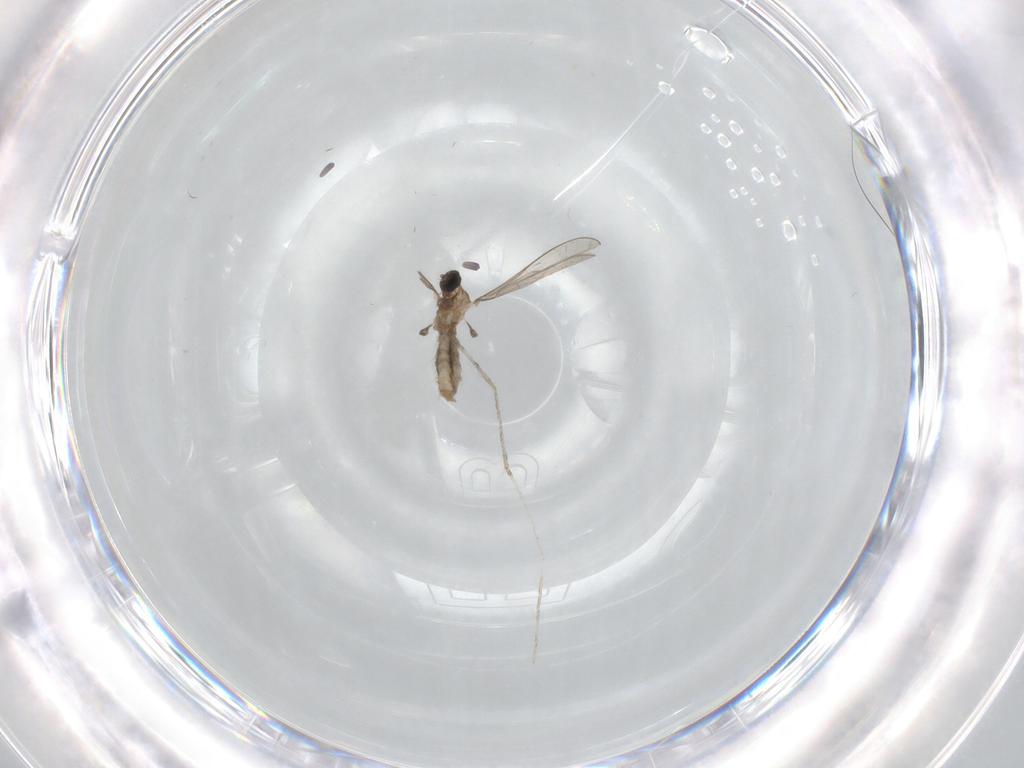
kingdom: Animalia
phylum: Arthropoda
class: Insecta
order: Diptera
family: Cecidomyiidae
